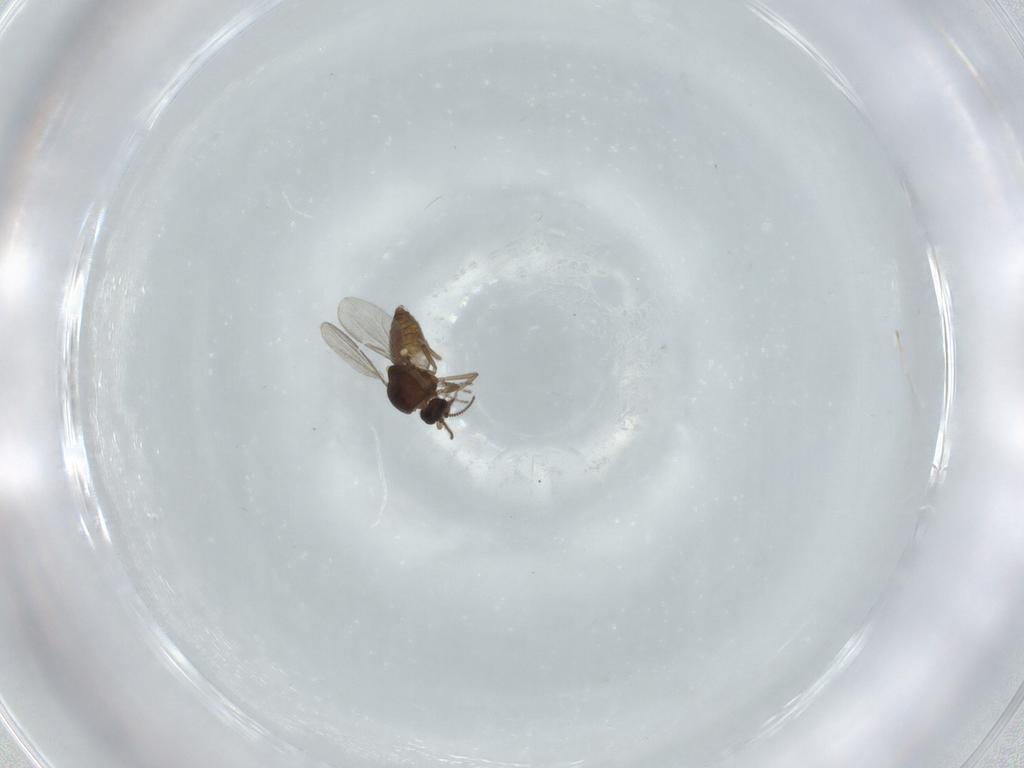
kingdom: Animalia
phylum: Arthropoda
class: Insecta
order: Diptera
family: Ceratopogonidae
